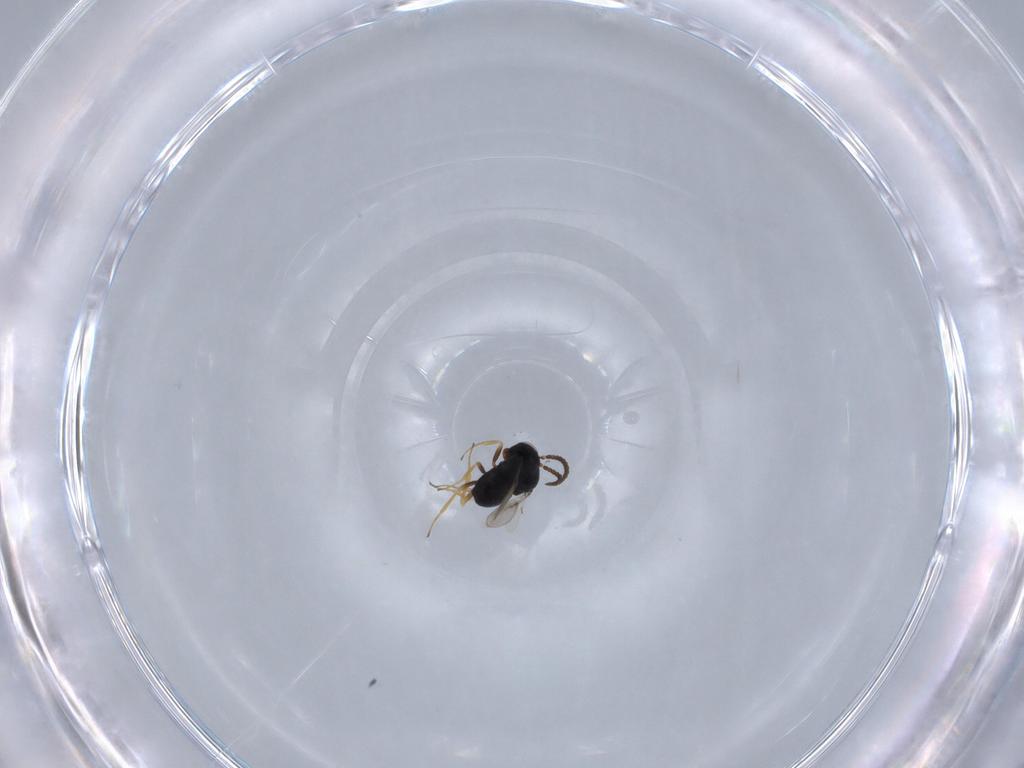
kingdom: Animalia
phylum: Arthropoda
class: Insecta
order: Hymenoptera
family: Scelionidae
